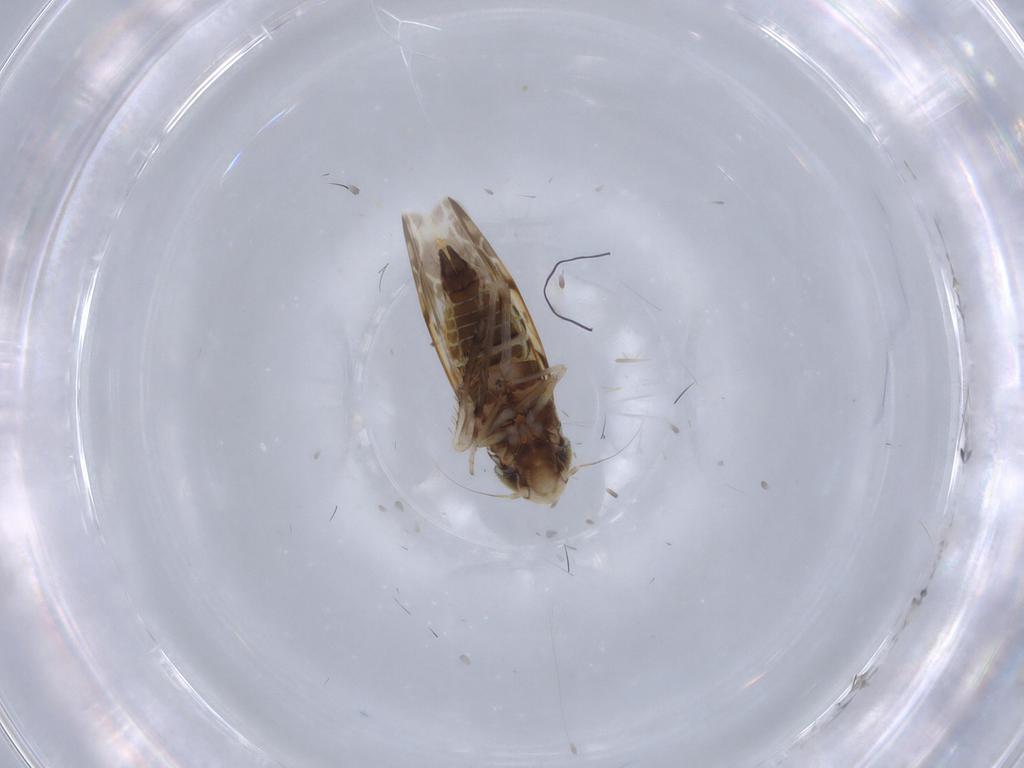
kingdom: Animalia
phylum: Arthropoda
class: Insecta
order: Hemiptera
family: Cicadellidae
